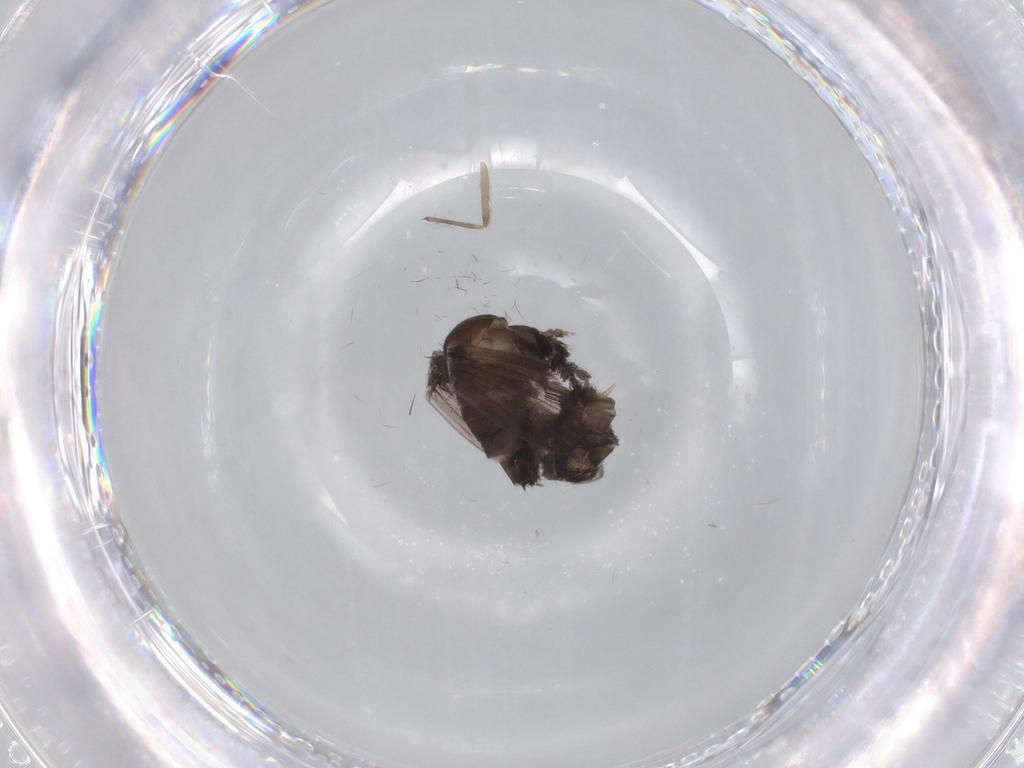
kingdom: Animalia
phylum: Arthropoda
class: Insecta
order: Diptera
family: Psychodidae
